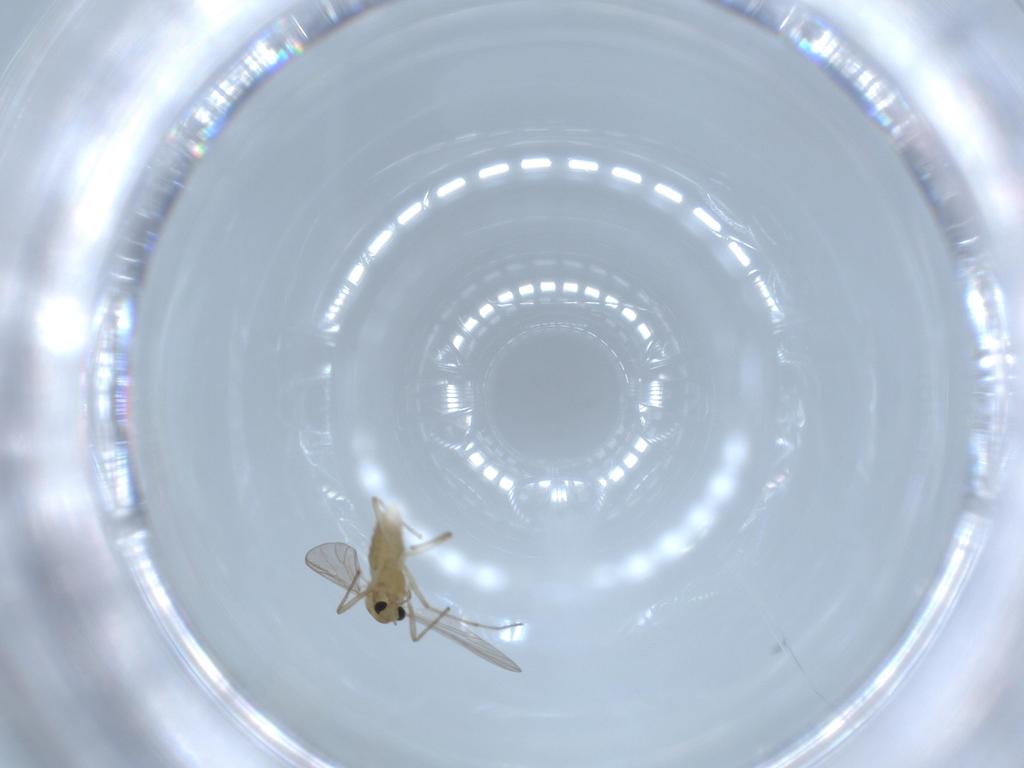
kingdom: Animalia
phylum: Arthropoda
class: Insecta
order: Diptera
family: Chironomidae
